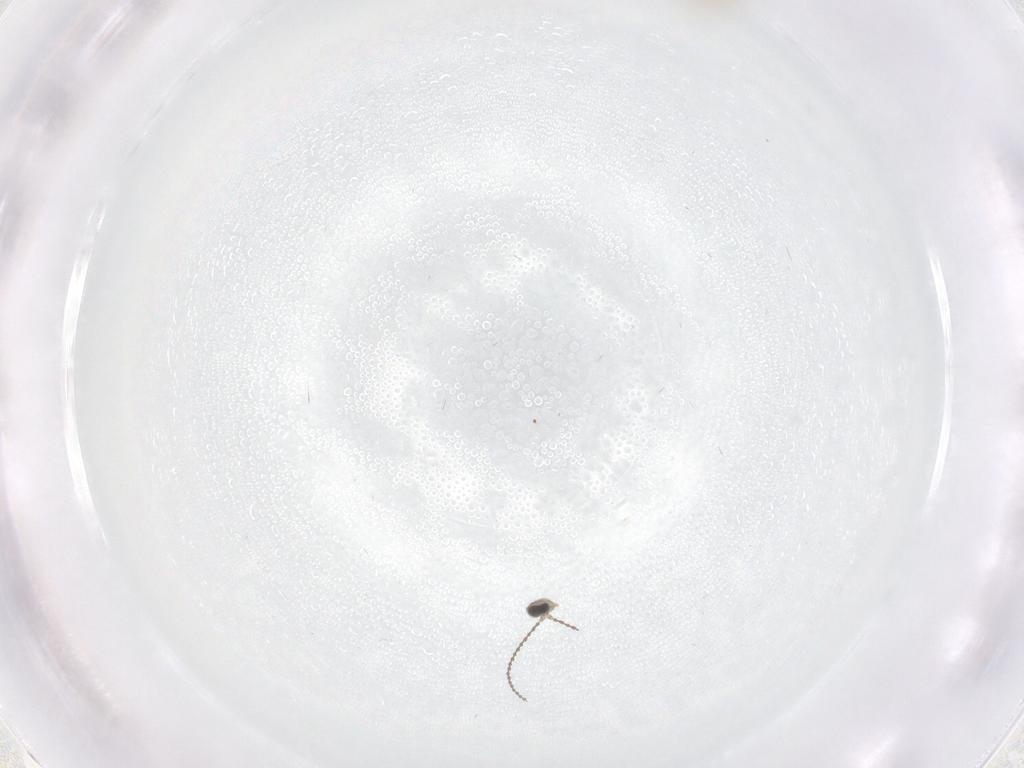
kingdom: Animalia
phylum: Arthropoda
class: Insecta
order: Diptera
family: Cecidomyiidae
